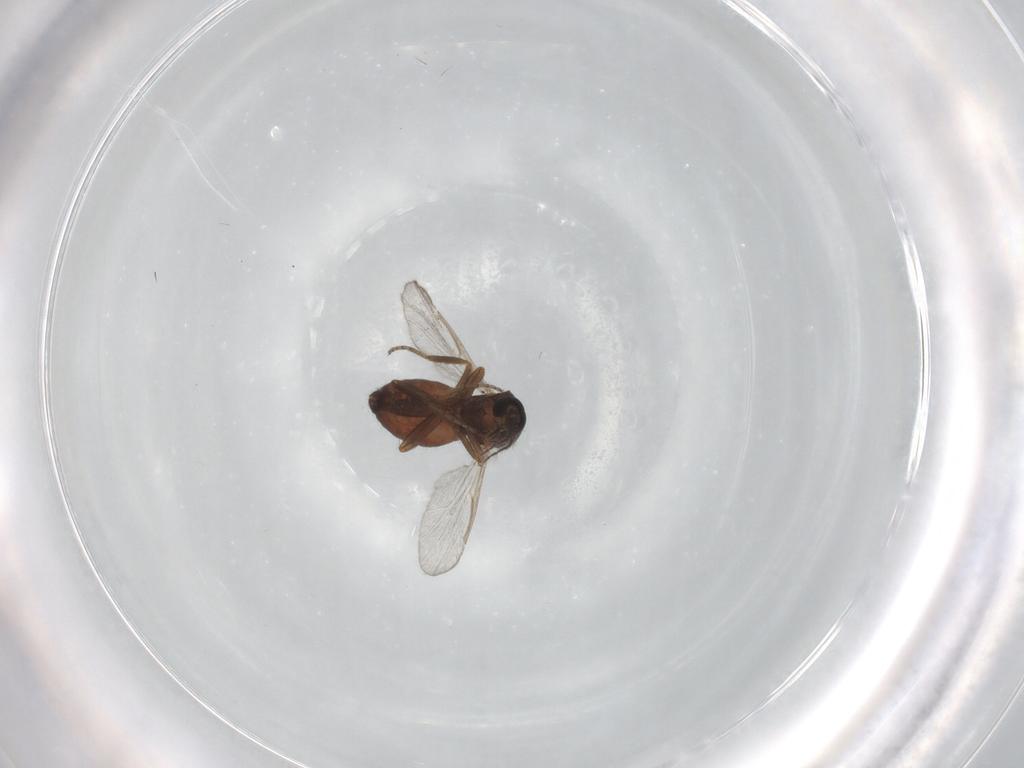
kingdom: Animalia
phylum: Arthropoda
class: Insecta
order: Diptera
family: Ceratopogonidae
